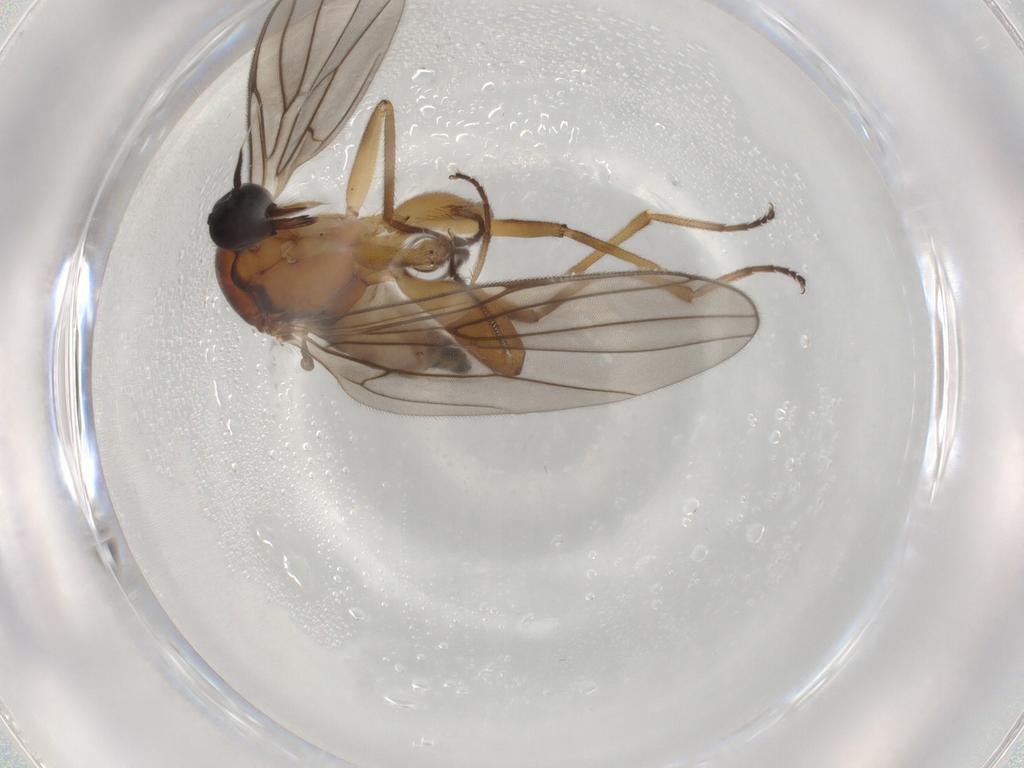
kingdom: Animalia
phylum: Arthropoda
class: Insecta
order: Diptera
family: Hybotidae
